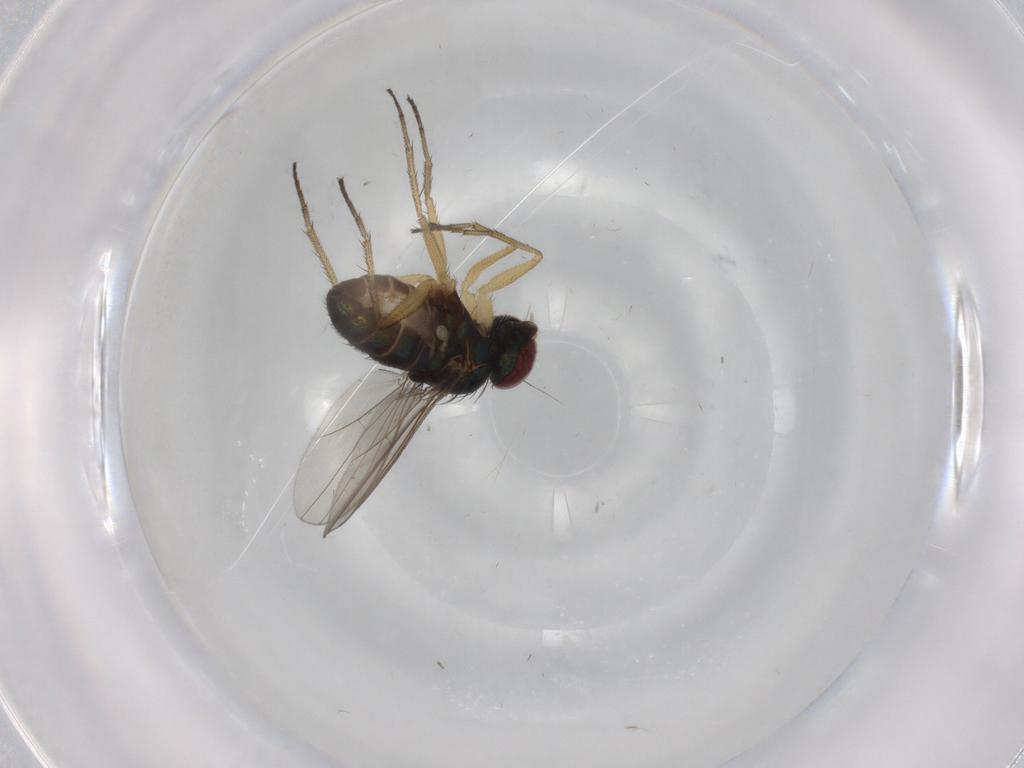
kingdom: Animalia
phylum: Arthropoda
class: Insecta
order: Diptera
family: Dolichopodidae
